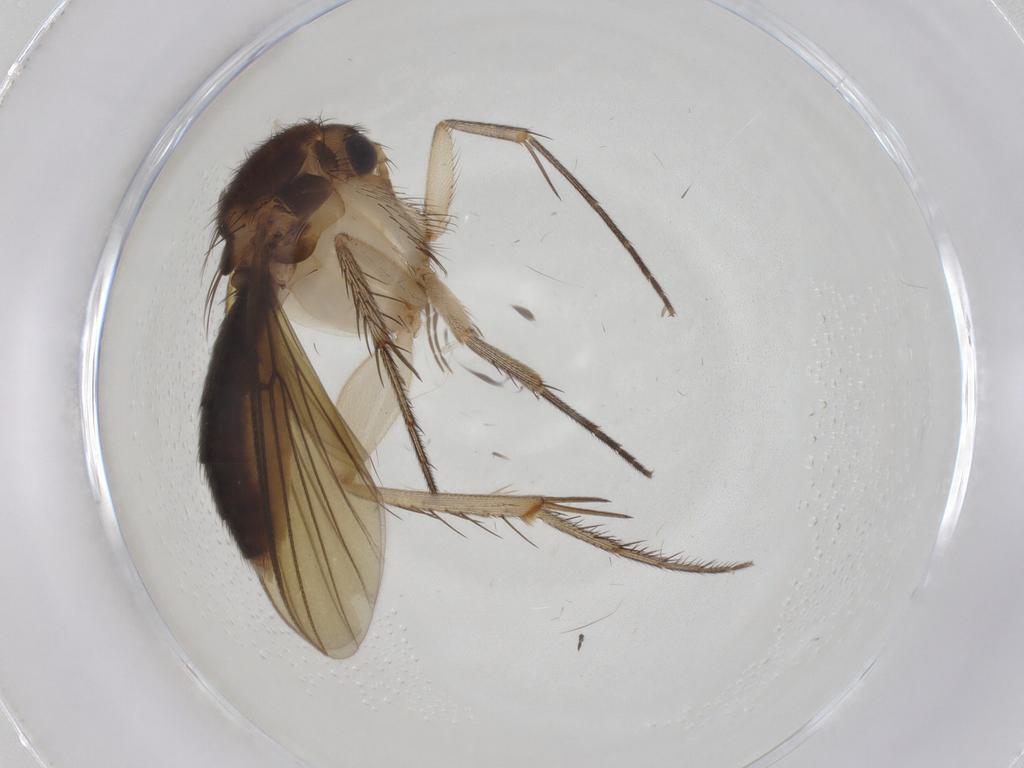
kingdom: Animalia
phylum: Arthropoda
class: Insecta
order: Diptera
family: Mycetophilidae
